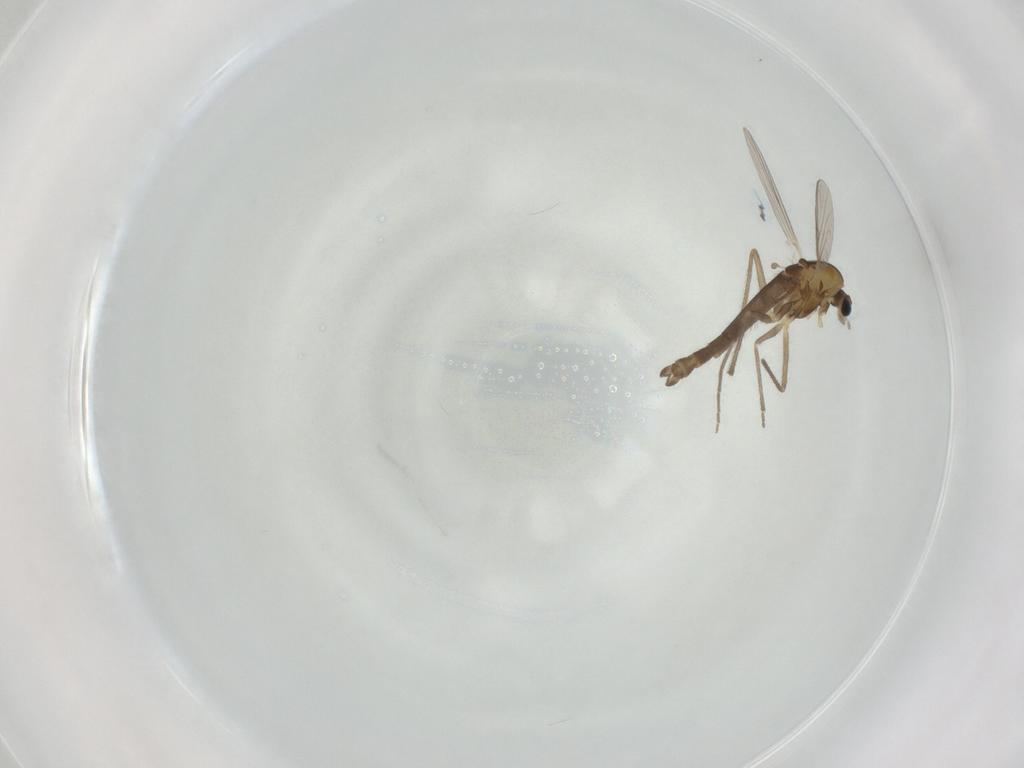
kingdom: Animalia
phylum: Arthropoda
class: Insecta
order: Diptera
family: Chironomidae
